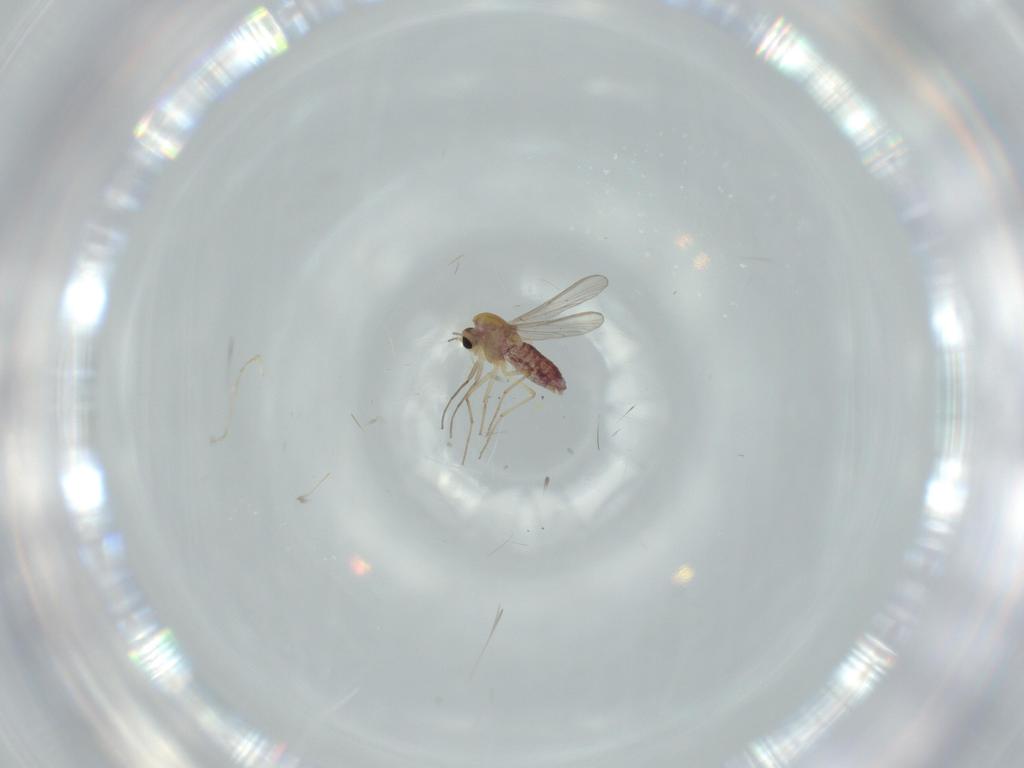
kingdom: Animalia
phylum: Arthropoda
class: Insecta
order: Diptera
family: Chironomidae
